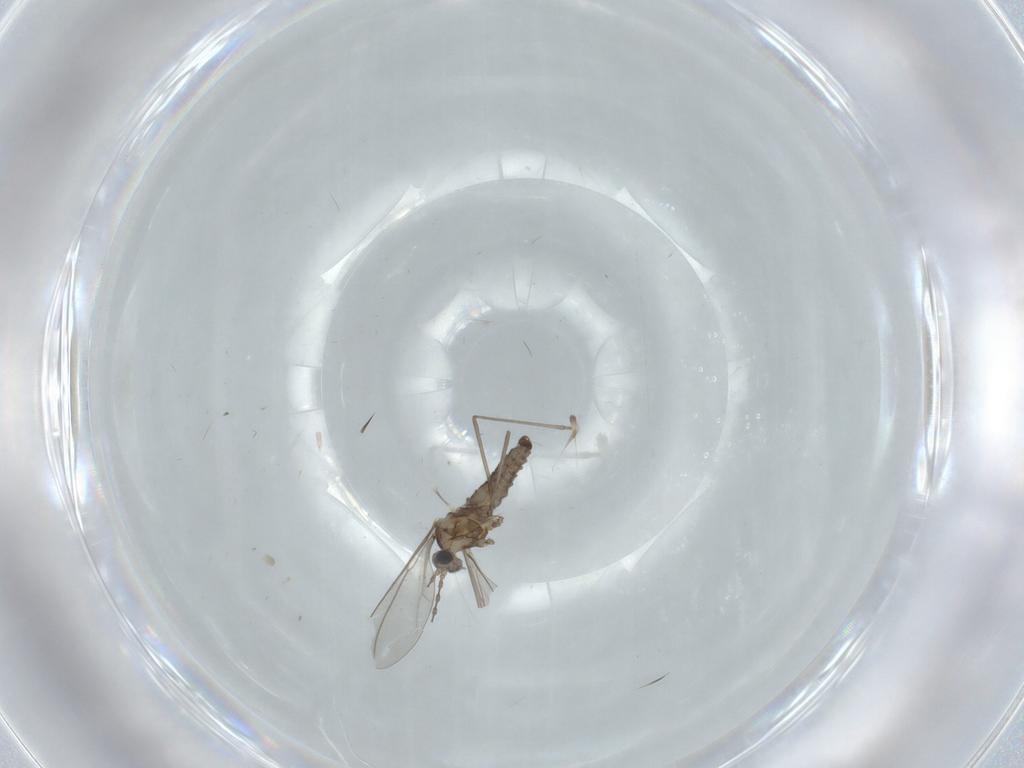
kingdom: Animalia
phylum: Arthropoda
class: Insecta
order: Diptera
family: Cecidomyiidae
